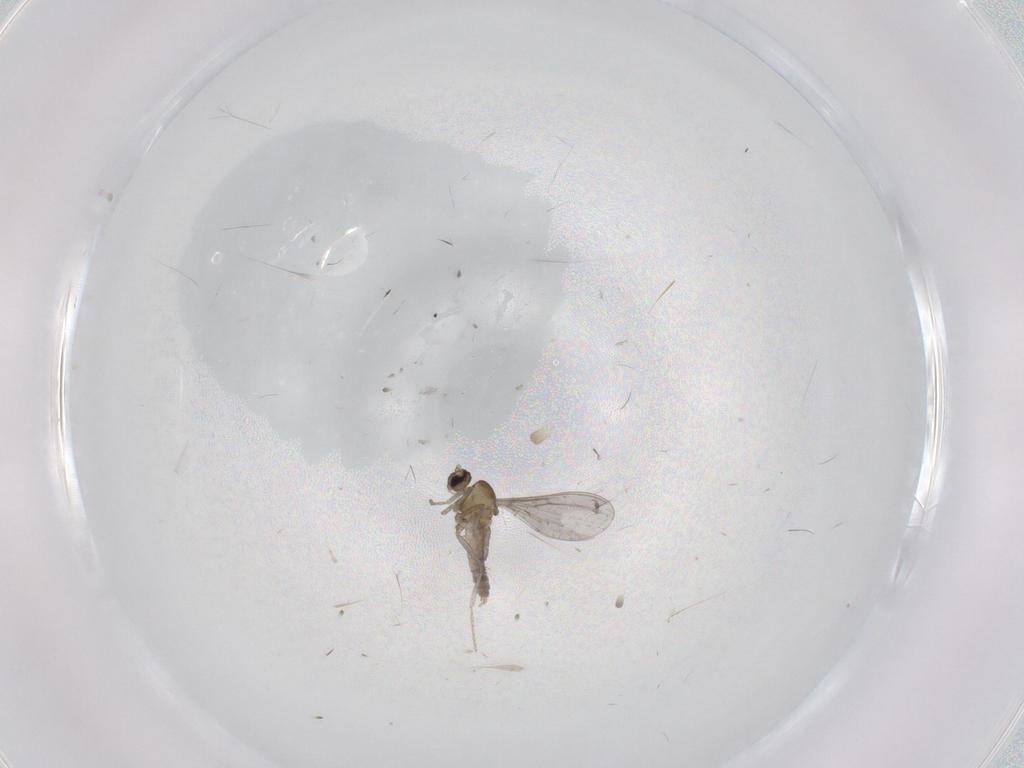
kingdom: Animalia
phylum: Arthropoda
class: Insecta
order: Diptera
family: Cecidomyiidae
